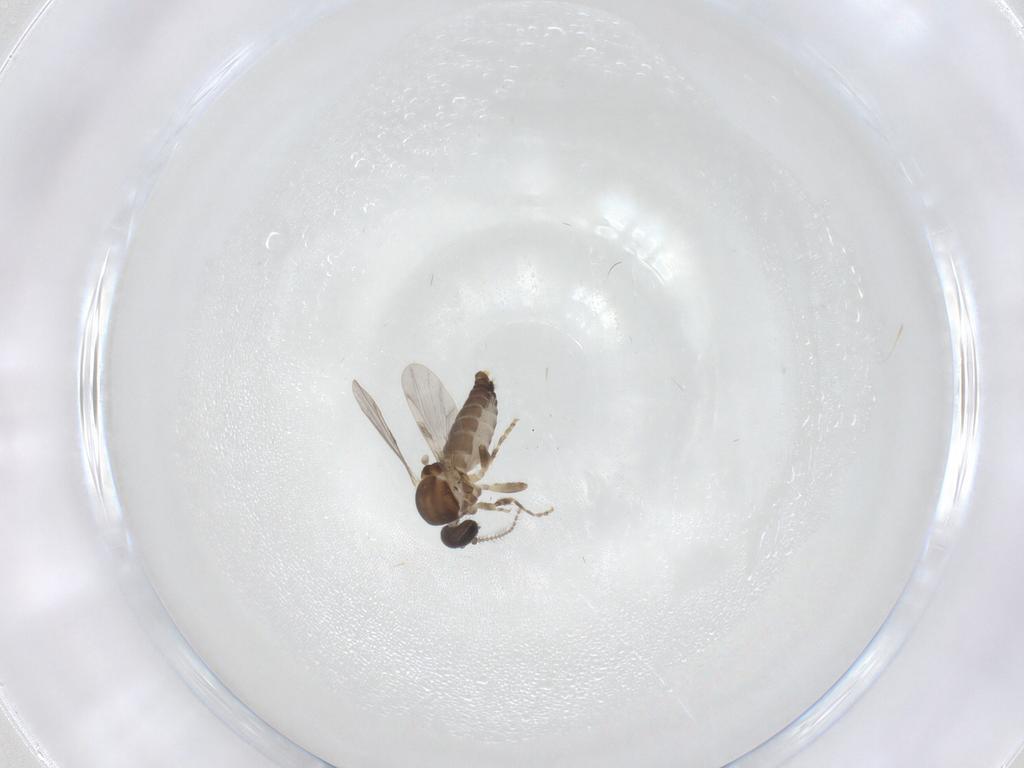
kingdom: Animalia
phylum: Arthropoda
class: Insecta
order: Diptera
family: Ceratopogonidae
